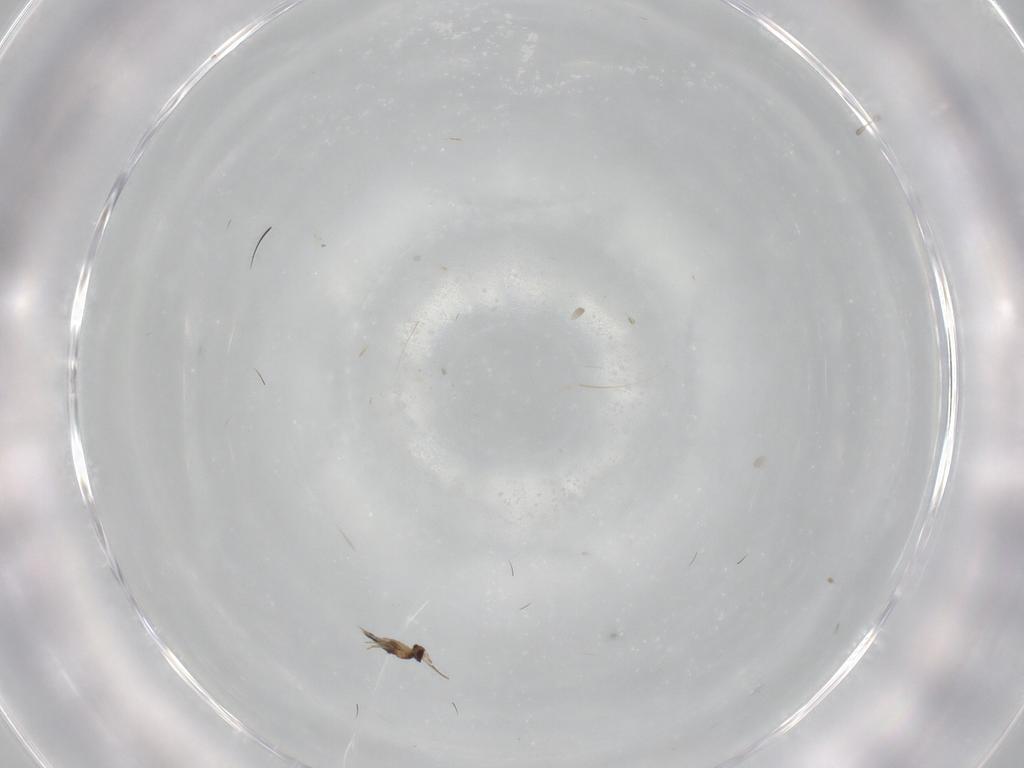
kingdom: Animalia
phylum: Arthropoda
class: Insecta
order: Hymenoptera
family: Mymaridae
